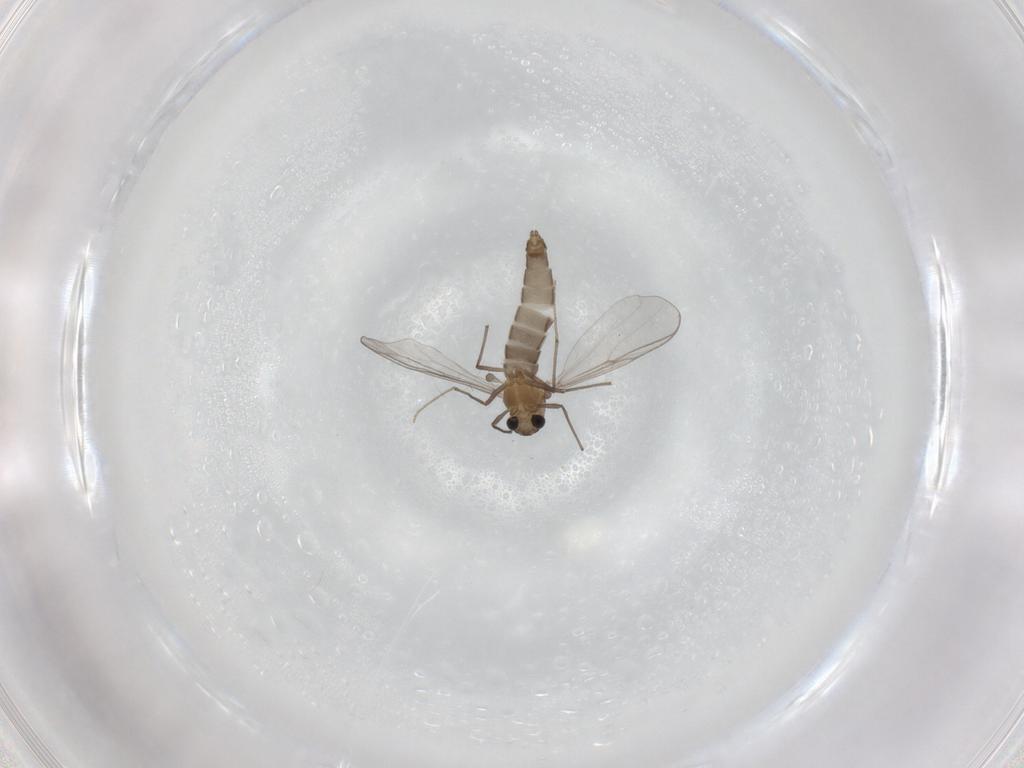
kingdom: Animalia
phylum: Arthropoda
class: Insecta
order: Diptera
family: Chironomidae
